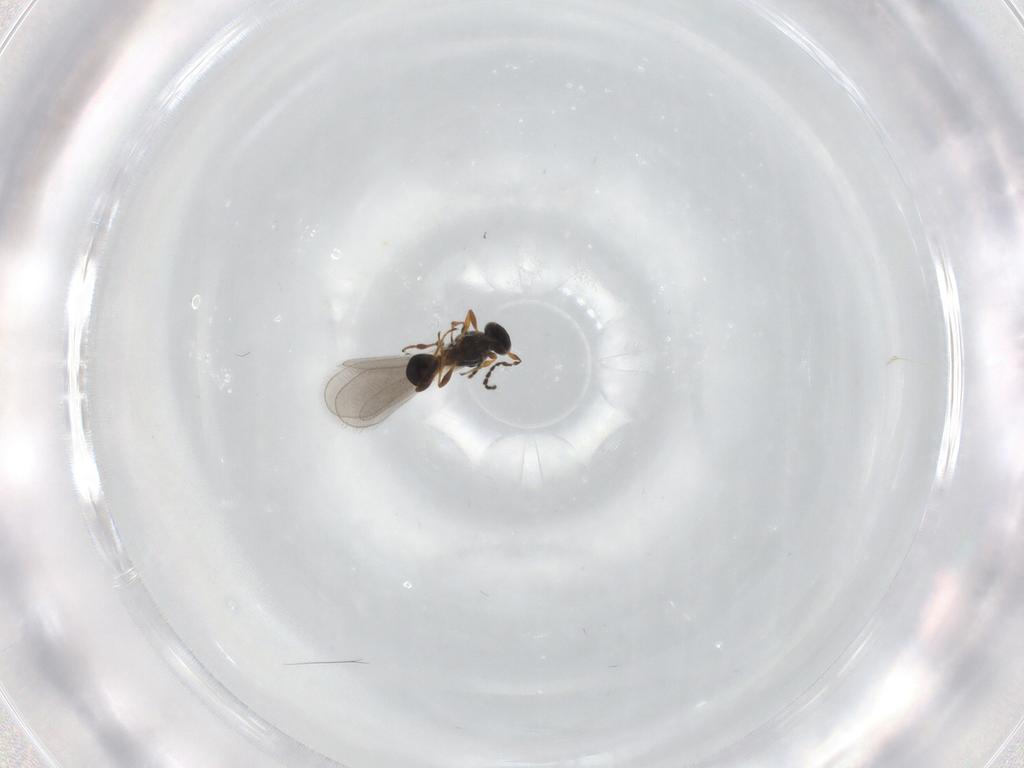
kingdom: Animalia
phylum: Arthropoda
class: Insecta
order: Hymenoptera
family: Platygastridae
